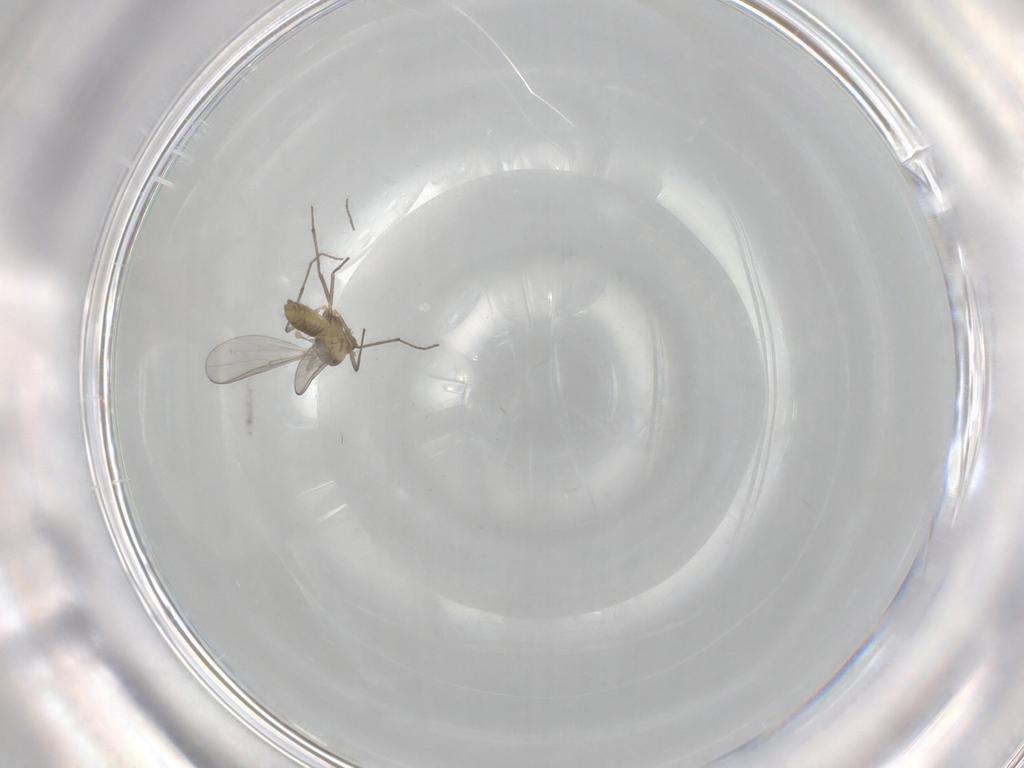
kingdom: Animalia
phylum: Arthropoda
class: Insecta
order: Diptera
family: Chironomidae
